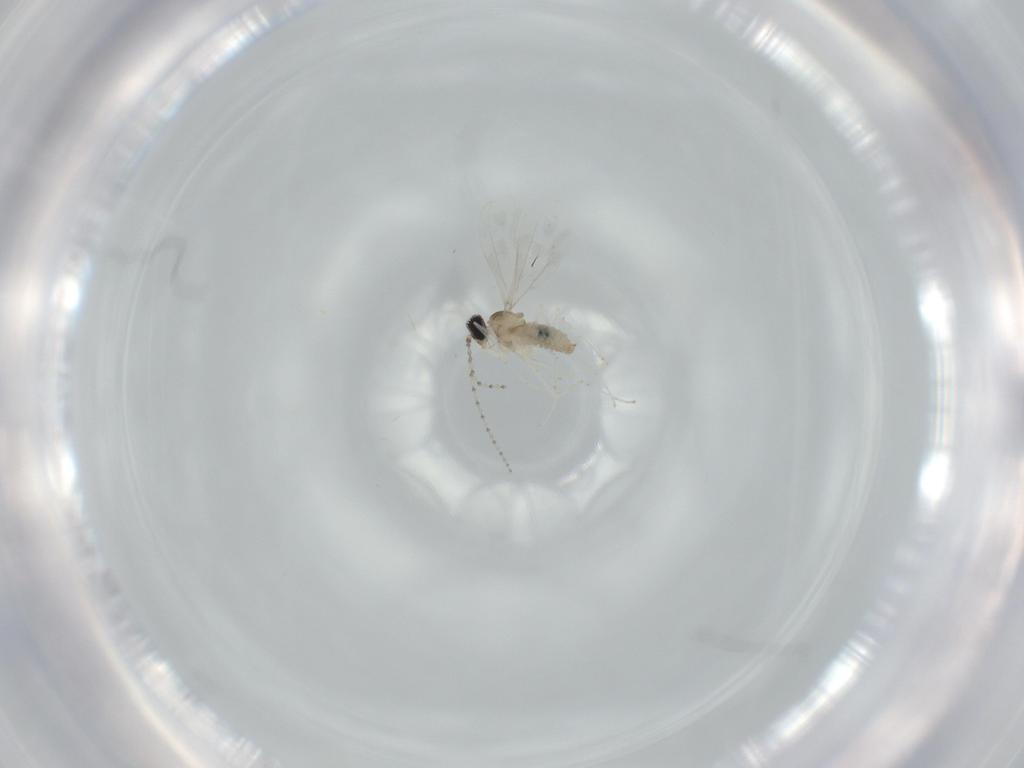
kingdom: Animalia
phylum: Arthropoda
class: Insecta
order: Diptera
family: Cecidomyiidae
